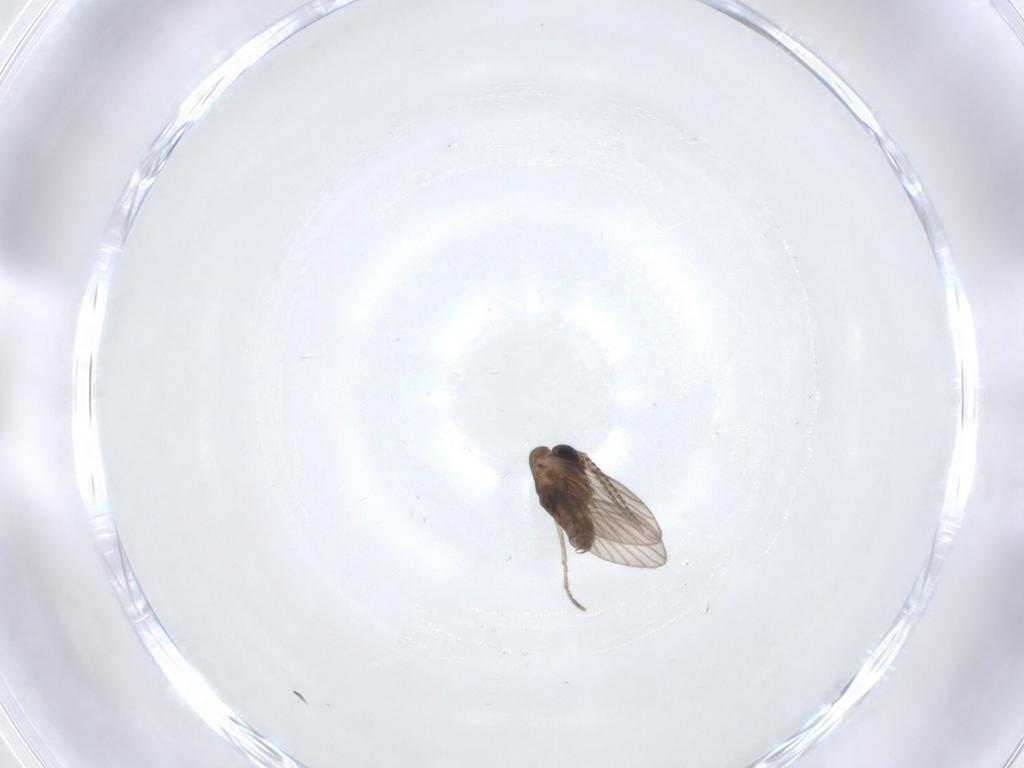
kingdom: Animalia
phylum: Arthropoda
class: Insecta
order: Diptera
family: Psychodidae
